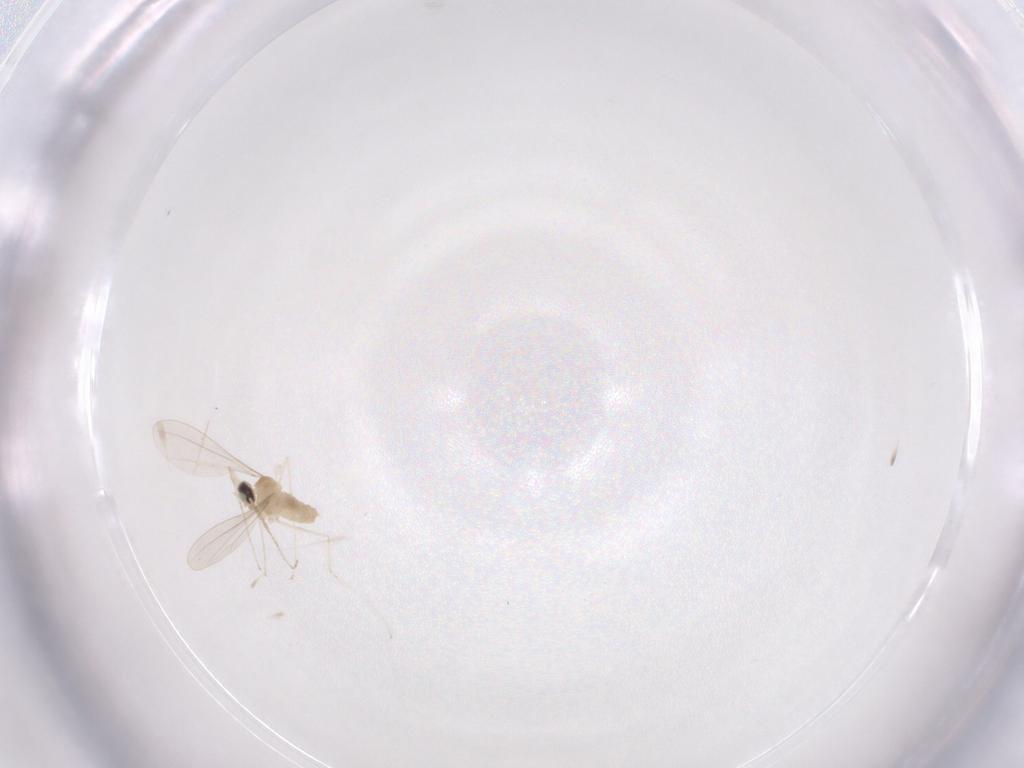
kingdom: Animalia
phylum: Arthropoda
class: Insecta
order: Diptera
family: Cecidomyiidae
